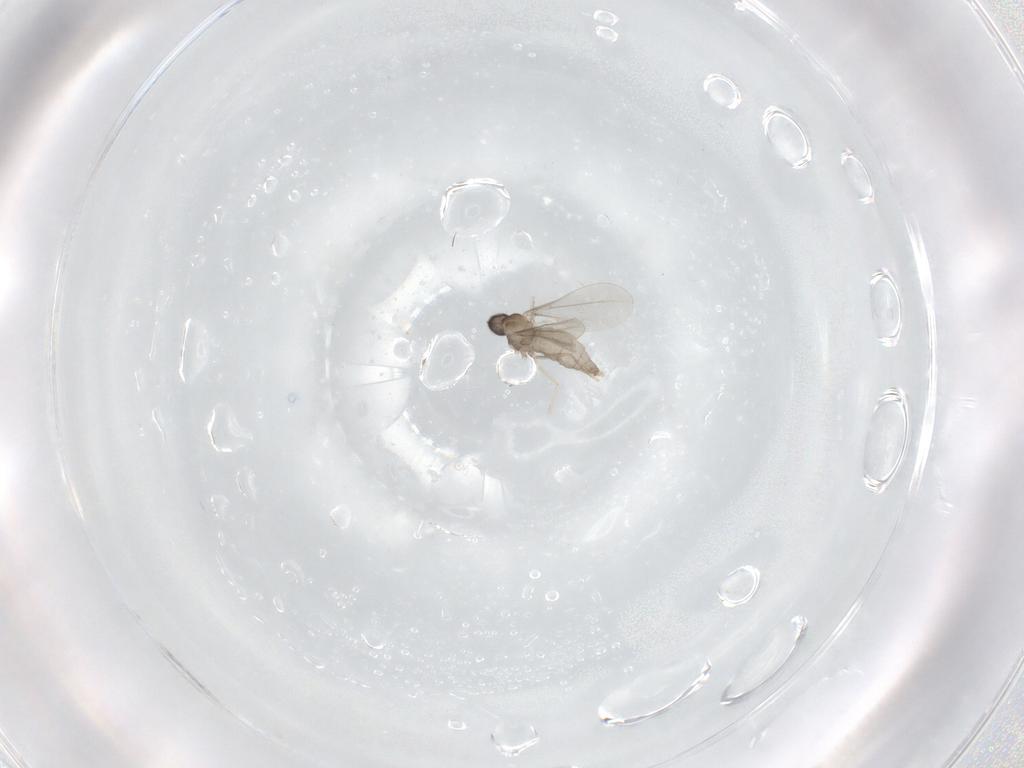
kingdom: Animalia
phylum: Arthropoda
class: Insecta
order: Diptera
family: Cecidomyiidae
